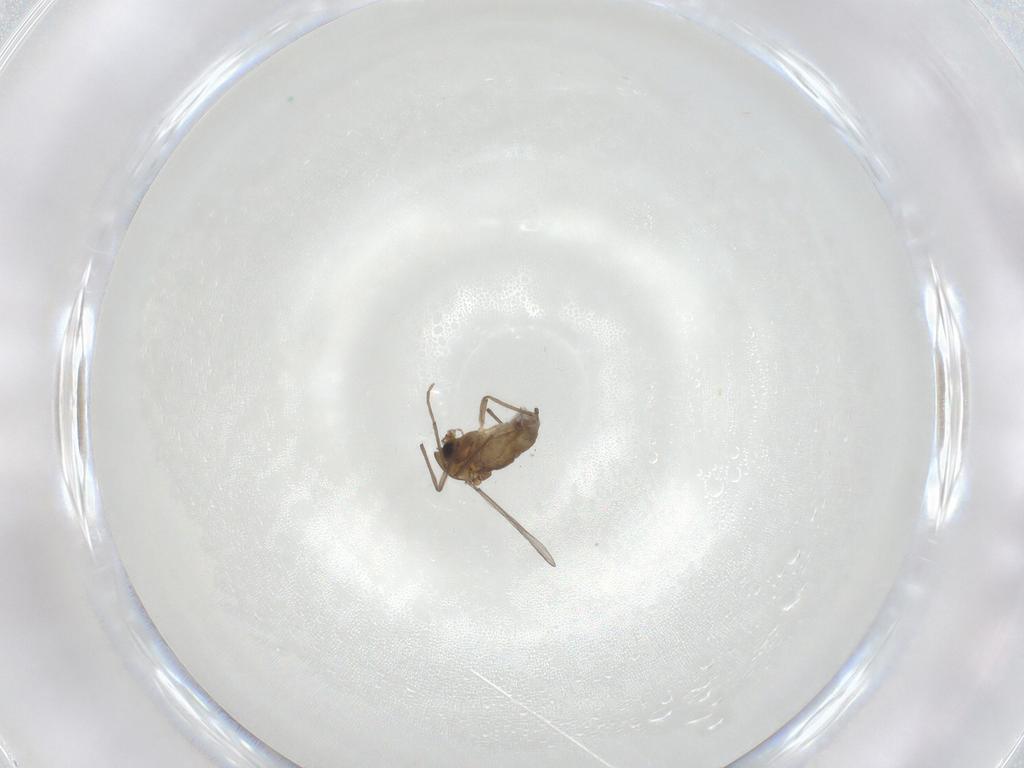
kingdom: Animalia
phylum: Arthropoda
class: Insecta
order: Diptera
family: Chironomidae
